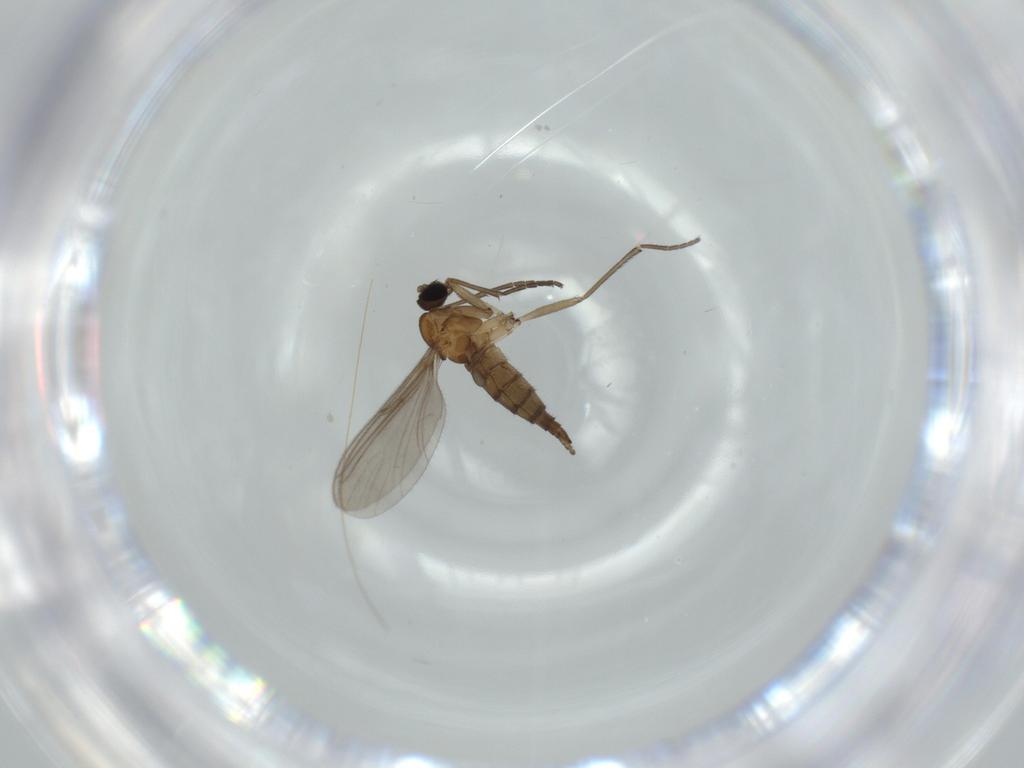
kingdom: Animalia
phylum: Arthropoda
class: Insecta
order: Diptera
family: Sciaridae
